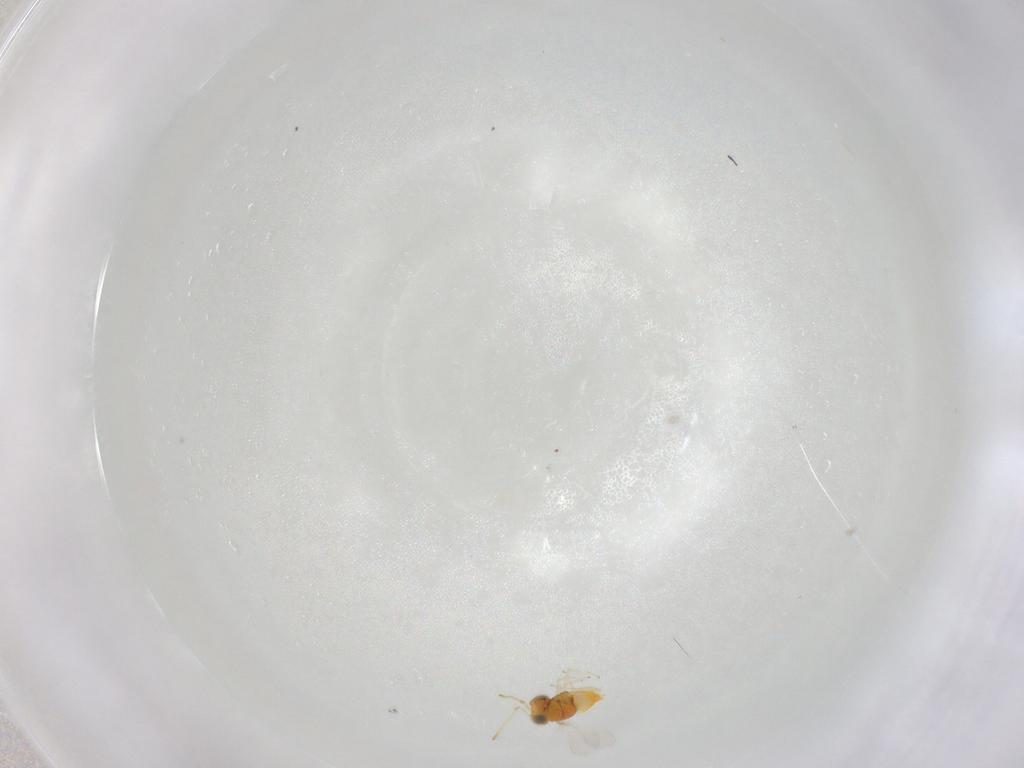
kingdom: Animalia
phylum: Arthropoda
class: Insecta
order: Hymenoptera
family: Aphelinidae
